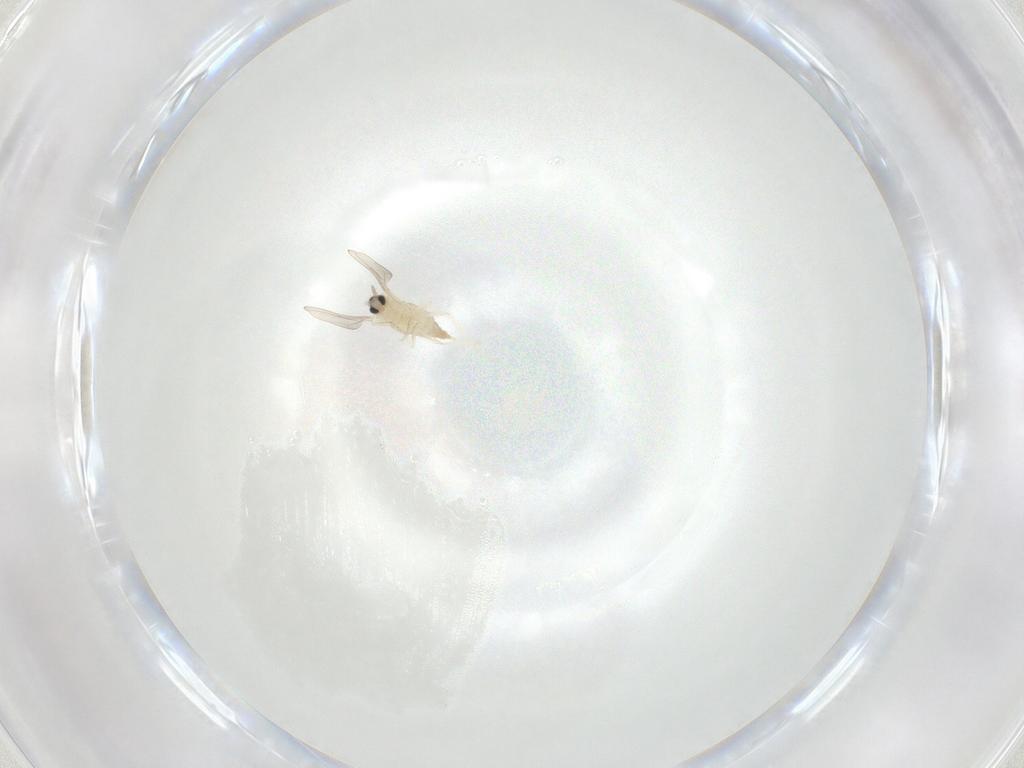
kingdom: Animalia
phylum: Arthropoda
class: Insecta
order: Diptera
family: Cecidomyiidae
